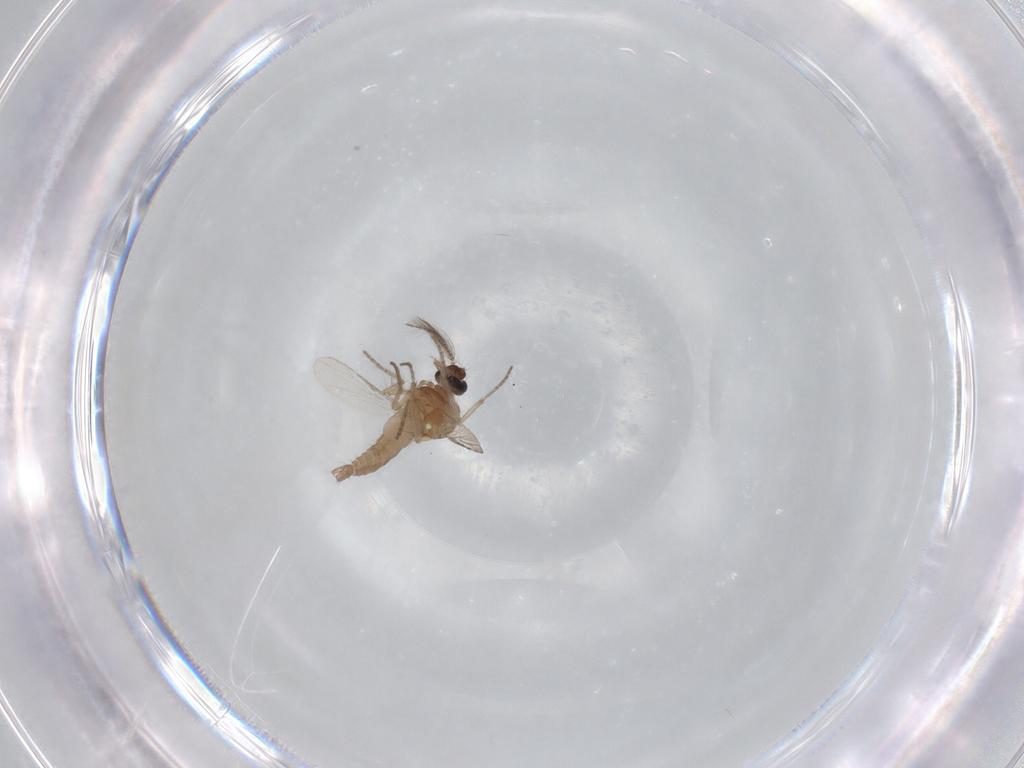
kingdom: Animalia
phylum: Arthropoda
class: Insecta
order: Diptera
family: Ceratopogonidae
